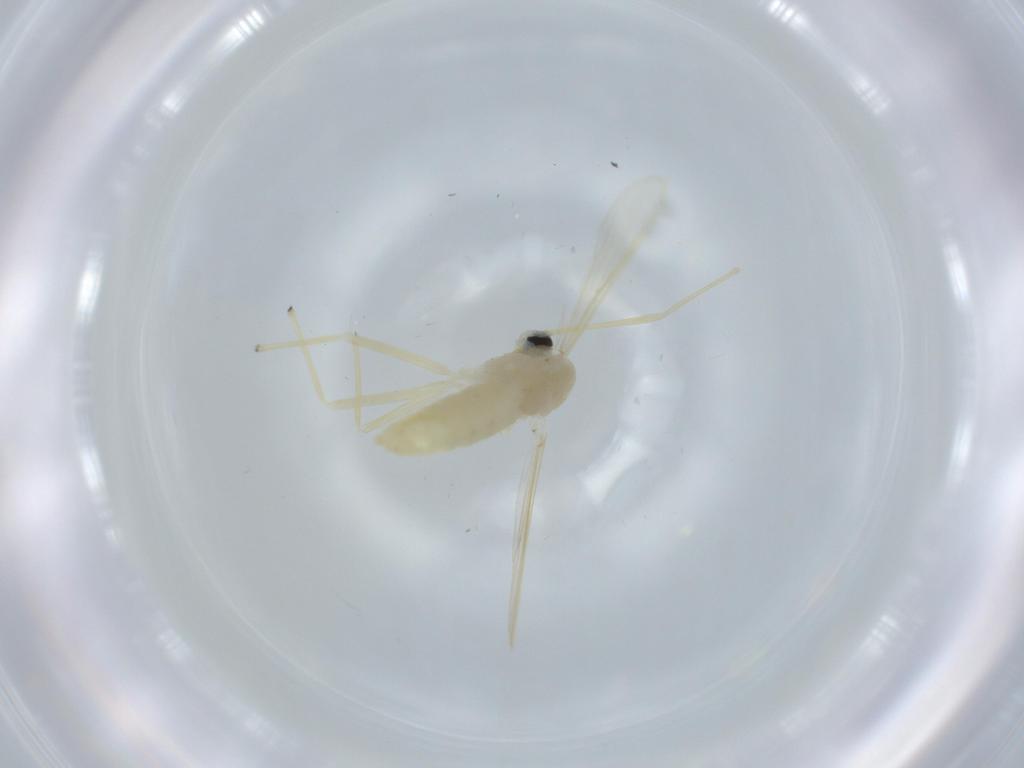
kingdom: Animalia
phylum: Arthropoda
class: Insecta
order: Diptera
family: Chironomidae
